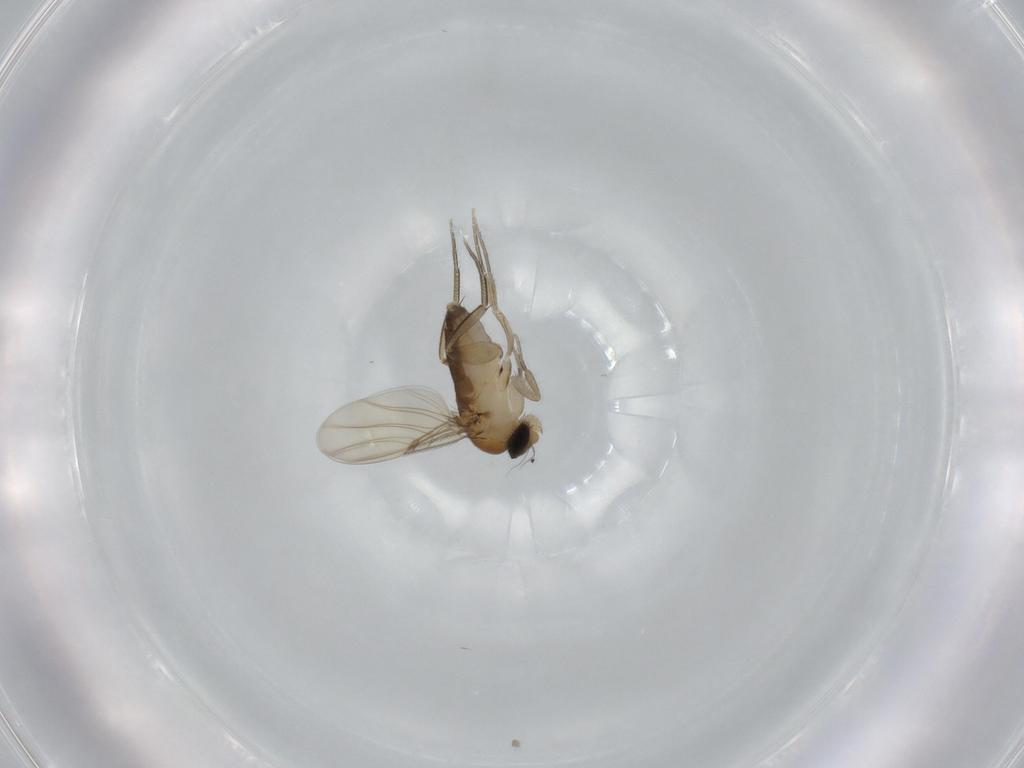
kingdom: Animalia
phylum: Arthropoda
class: Insecta
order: Diptera
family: Phoridae
